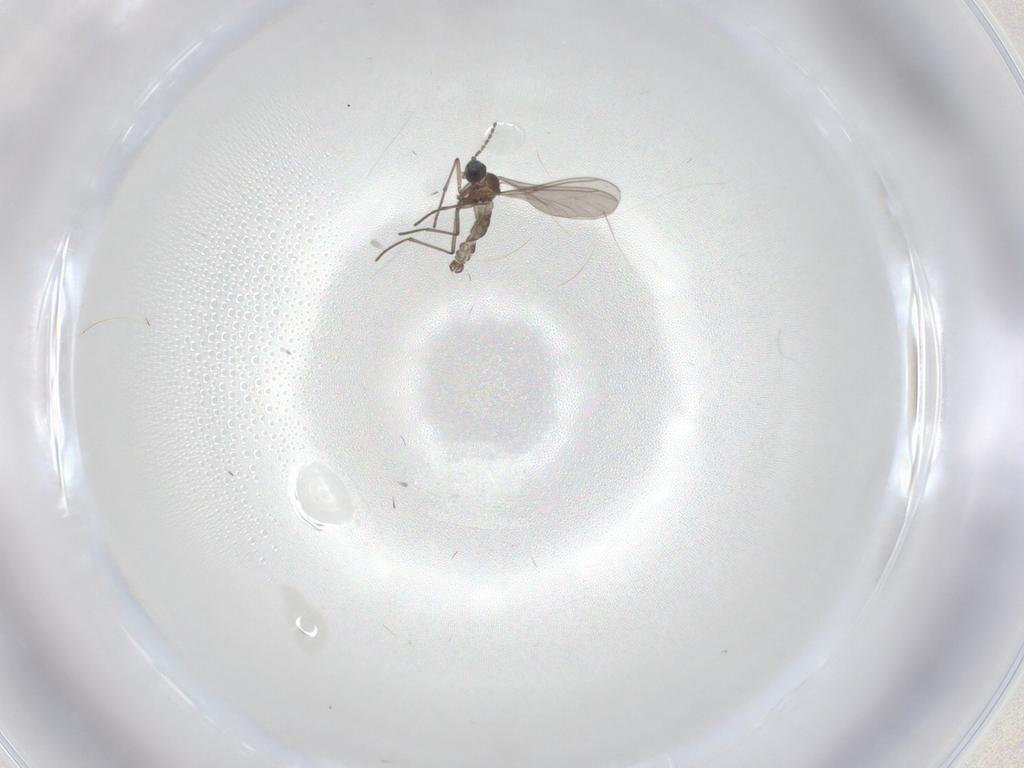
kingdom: Animalia
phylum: Arthropoda
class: Insecta
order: Diptera
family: Sciaridae
